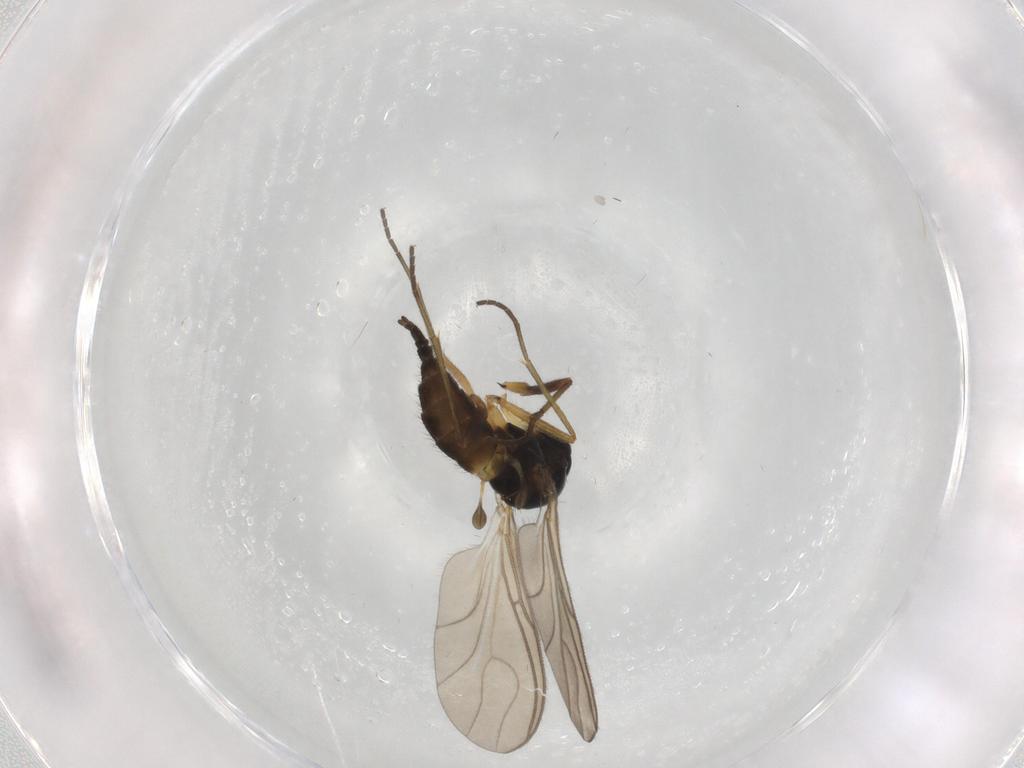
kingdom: Animalia
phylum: Arthropoda
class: Insecta
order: Diptera
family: Sciaridae
